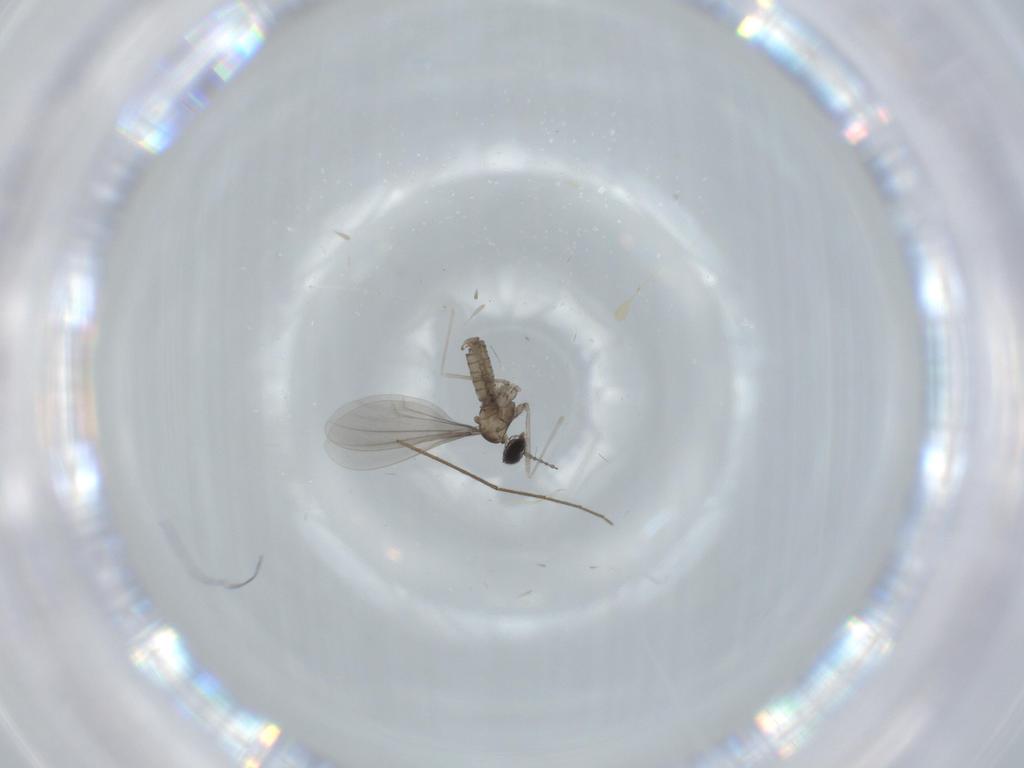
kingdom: Animalia
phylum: Arthropoda
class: Insecta
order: Diptera
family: Chironomidae
